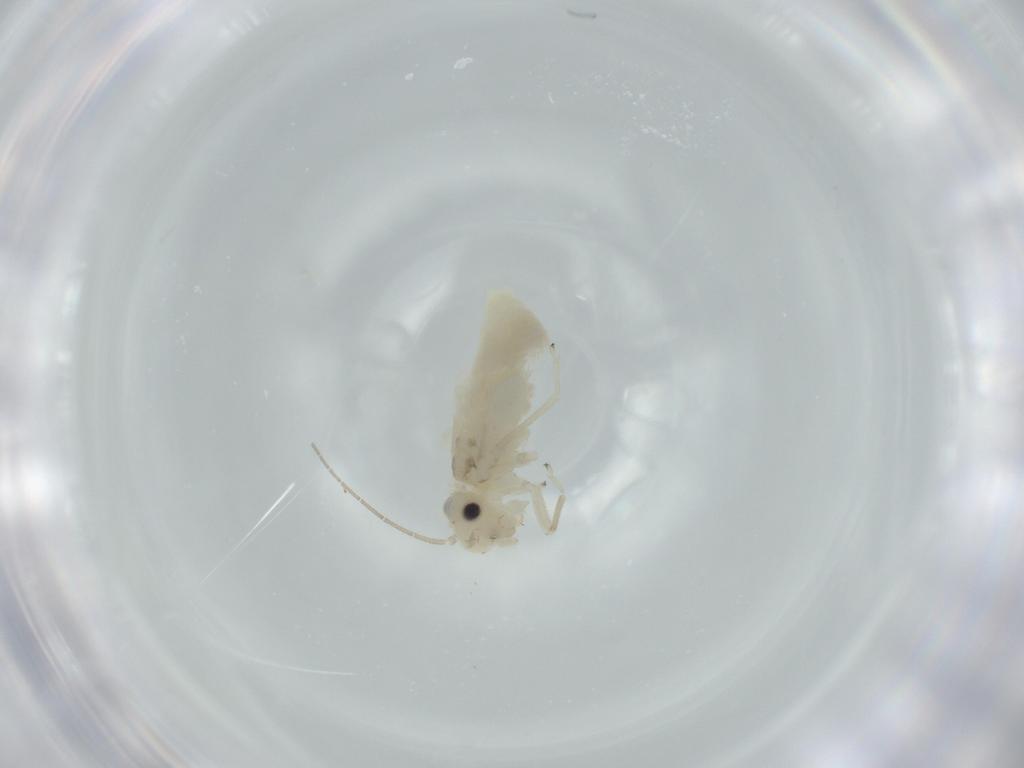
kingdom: Animalia
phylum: Arthropoda
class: Insecta
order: Psocodea
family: Caeciliusidae
